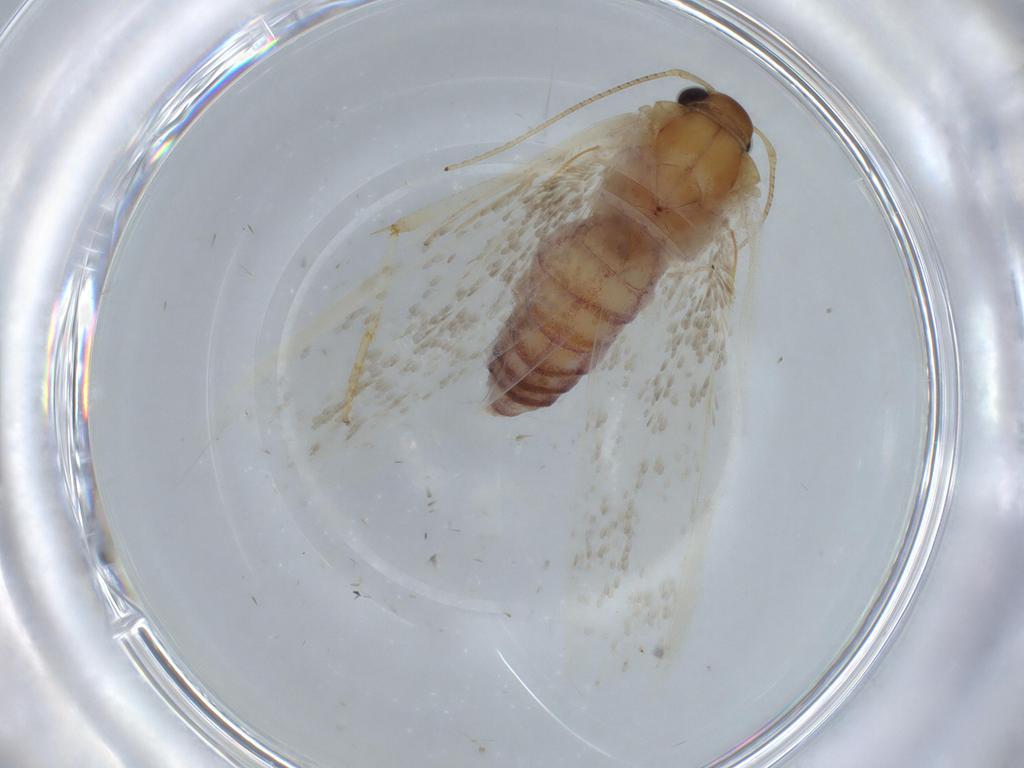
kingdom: Animalia
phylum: Arthropoda
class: Insecta
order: Lepidoptera
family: Blastobasidae
